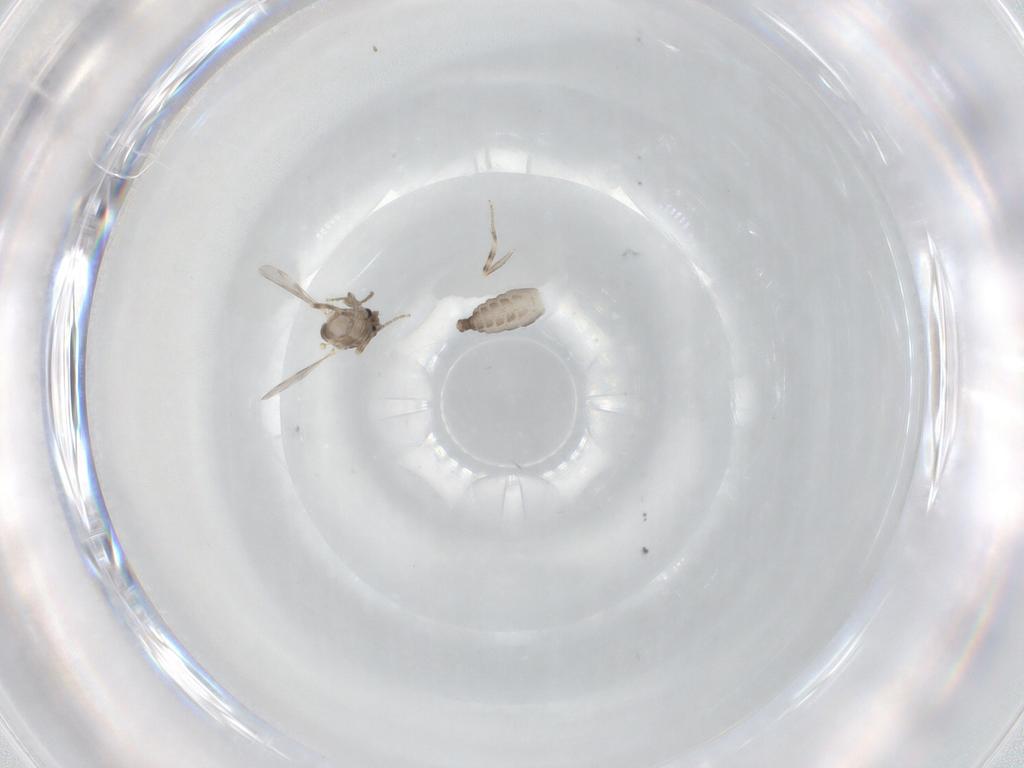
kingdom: Animalia
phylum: Arthropoda
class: Insecta
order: Diptera
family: Ceratopogonidae
